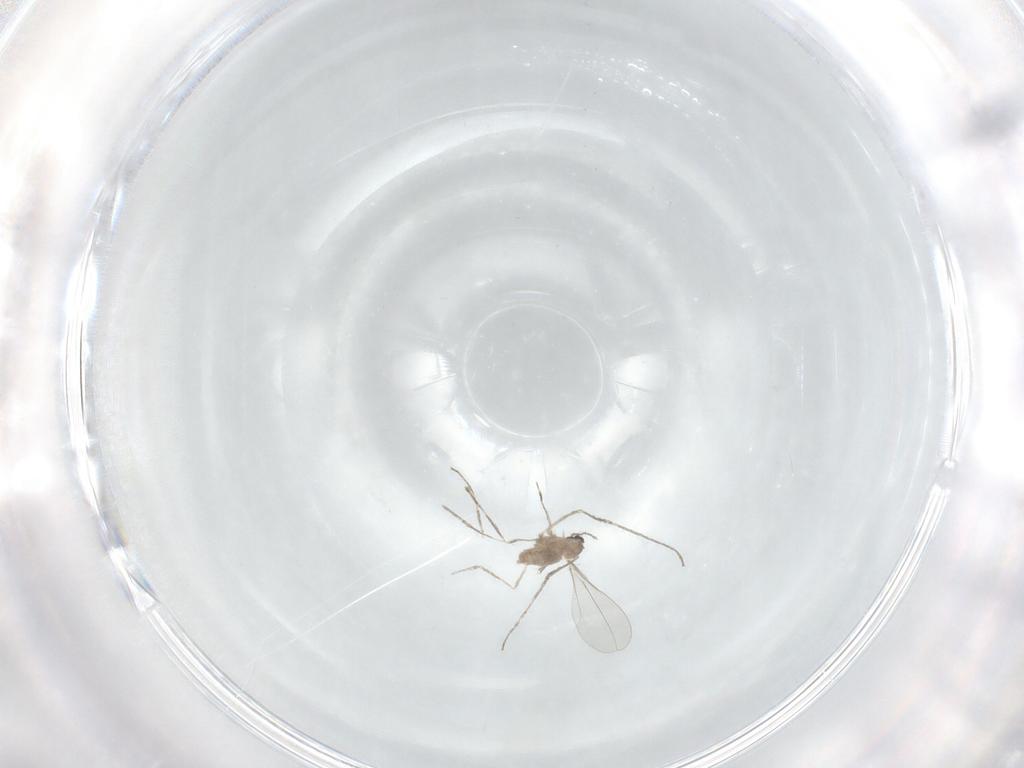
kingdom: Animalia
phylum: Arthropoda
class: Insecta
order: Diptera
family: Cecidomyiidae
